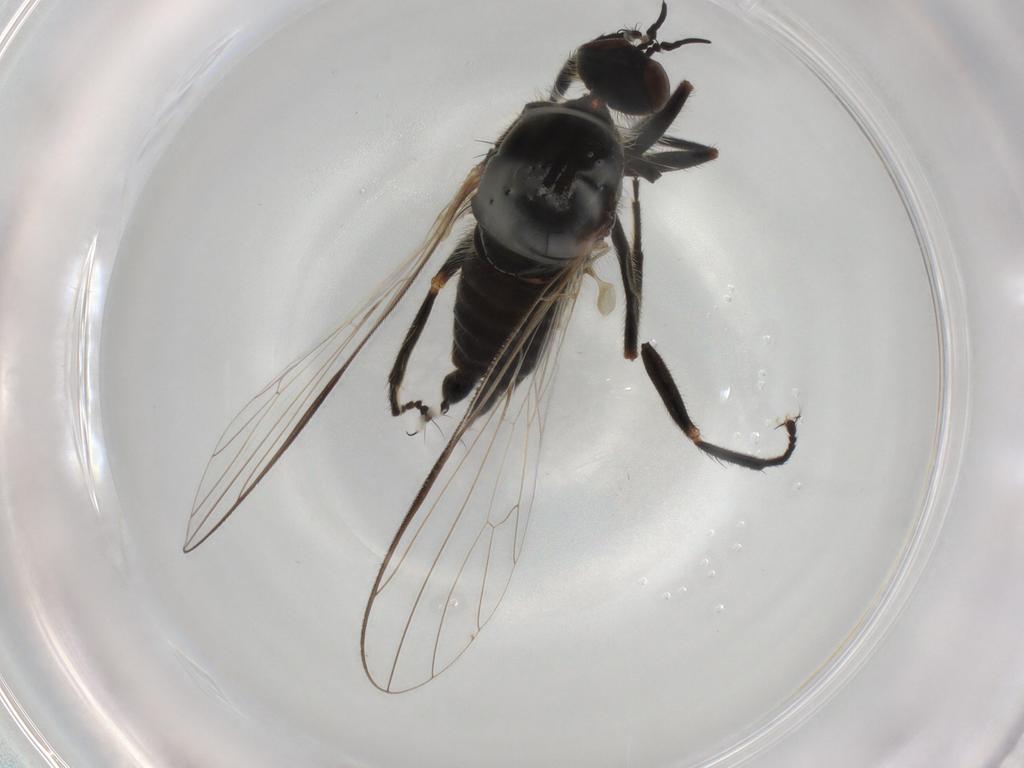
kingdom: Animalia
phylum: Arthropoda
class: Insecta
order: Diptera
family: Empididae
